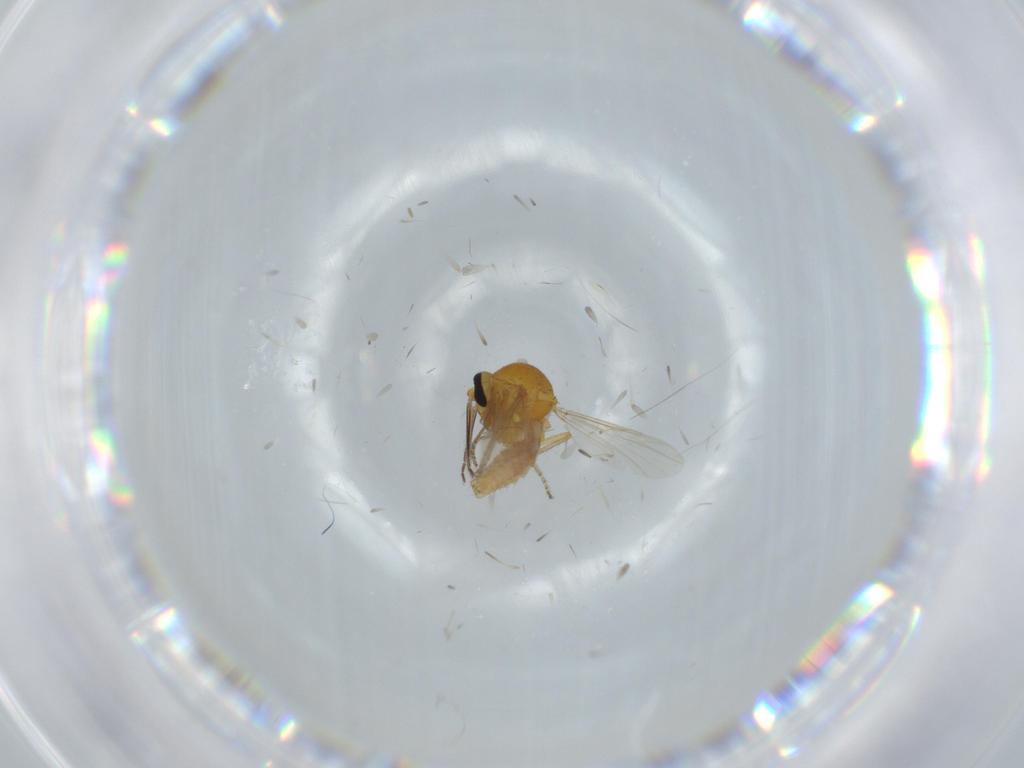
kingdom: Animalia
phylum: Arthropoda
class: Insecta
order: Diptera
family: Ceratopogonidae
